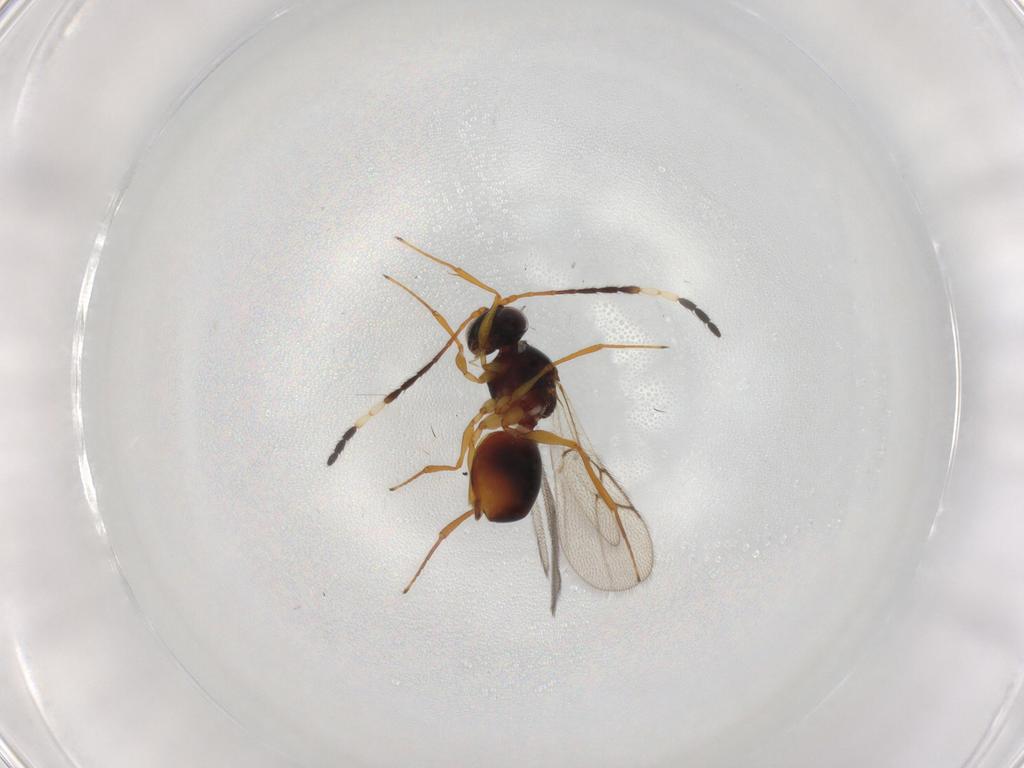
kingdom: Animalia
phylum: Arthropoda
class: Insecta
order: Hymenoptera
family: Figitidae
